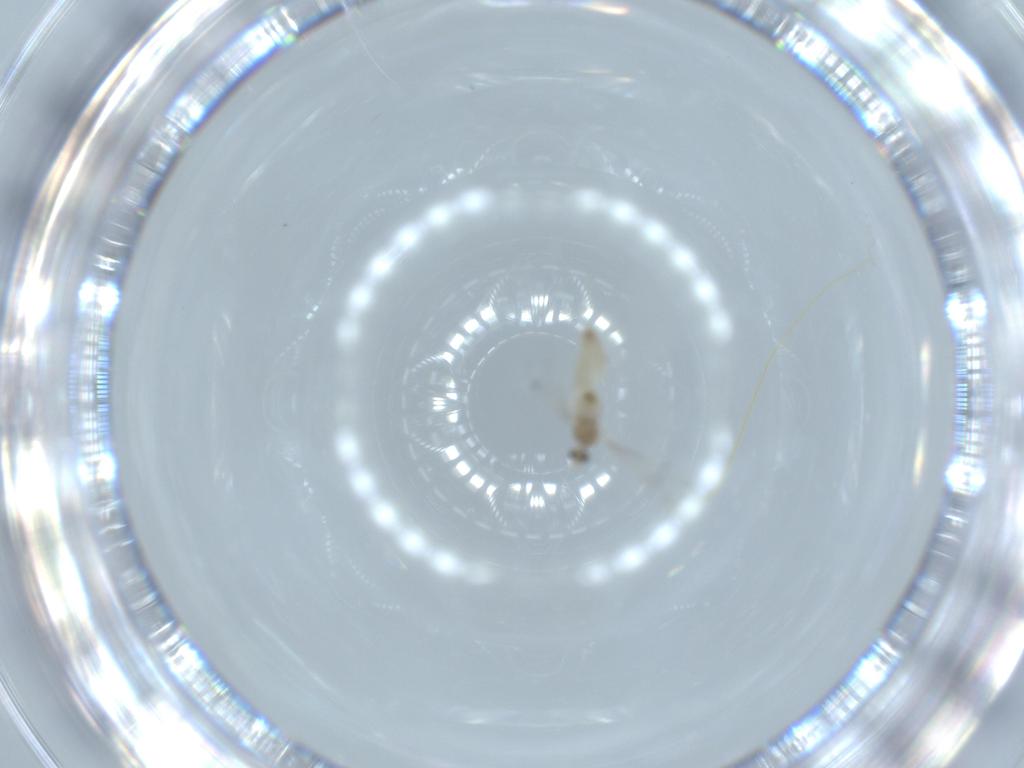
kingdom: Animalia
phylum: Arthropoda
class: Insecta
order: Diptera
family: Cecidomyiidae
